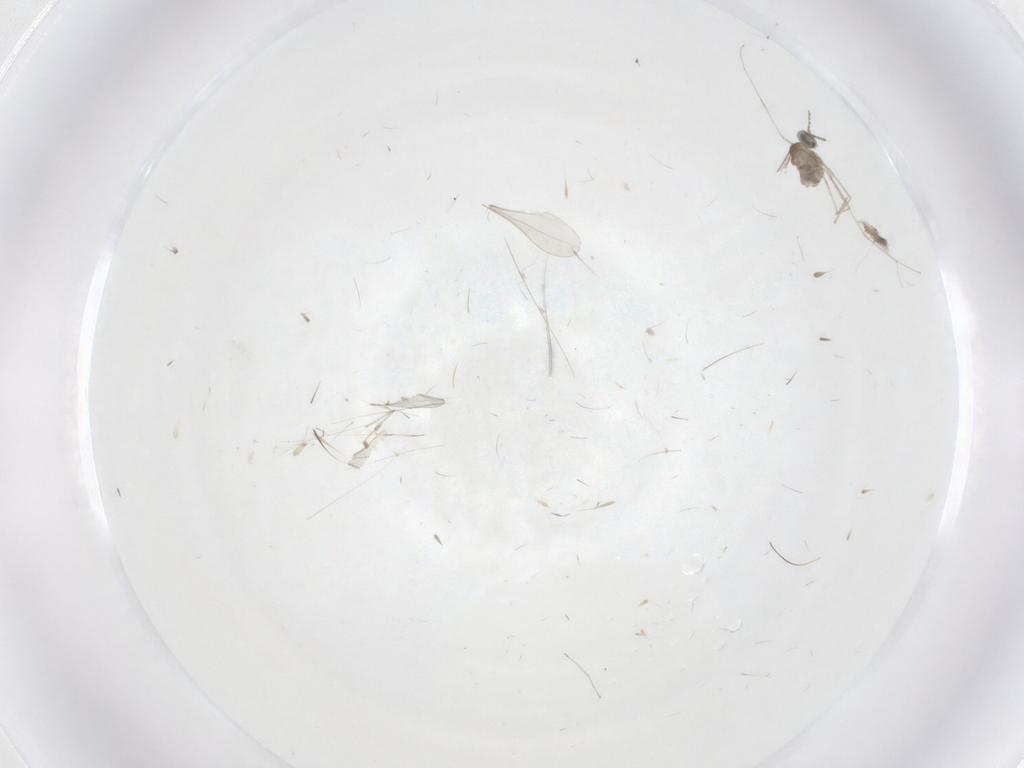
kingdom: Animalia
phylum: Arthropoda
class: Insecta
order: Diptera
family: Cecidomyiidae
